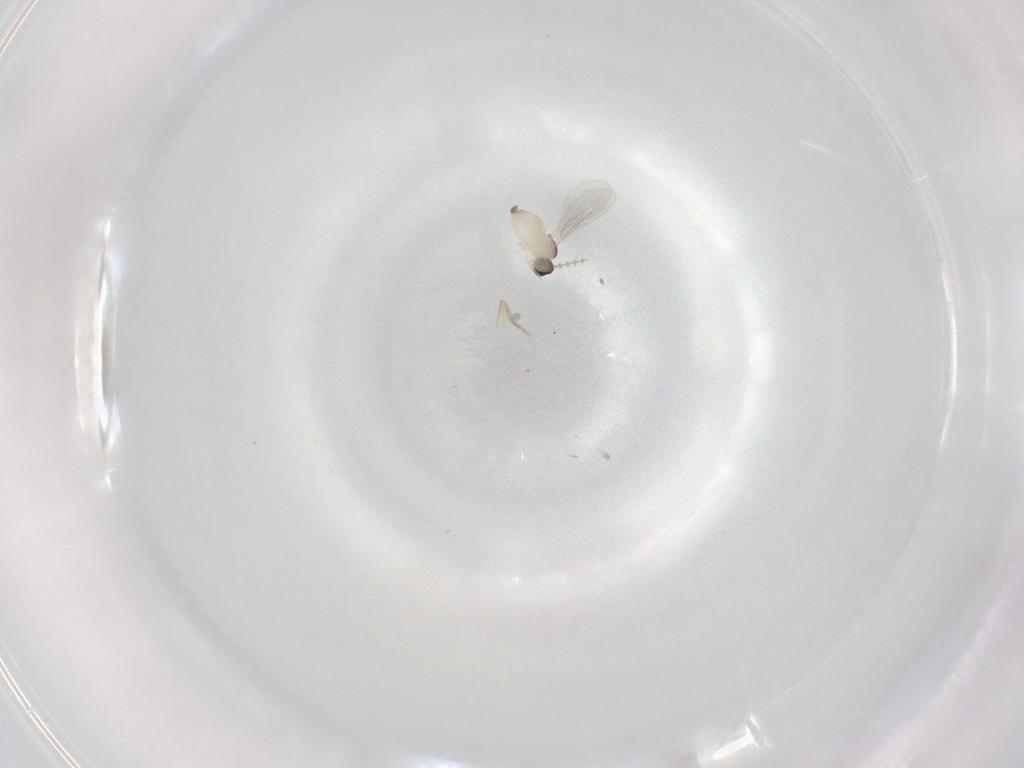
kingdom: Animalia
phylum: Arthropoda
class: Insecta
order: Diptera
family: Cecidomyiidae
